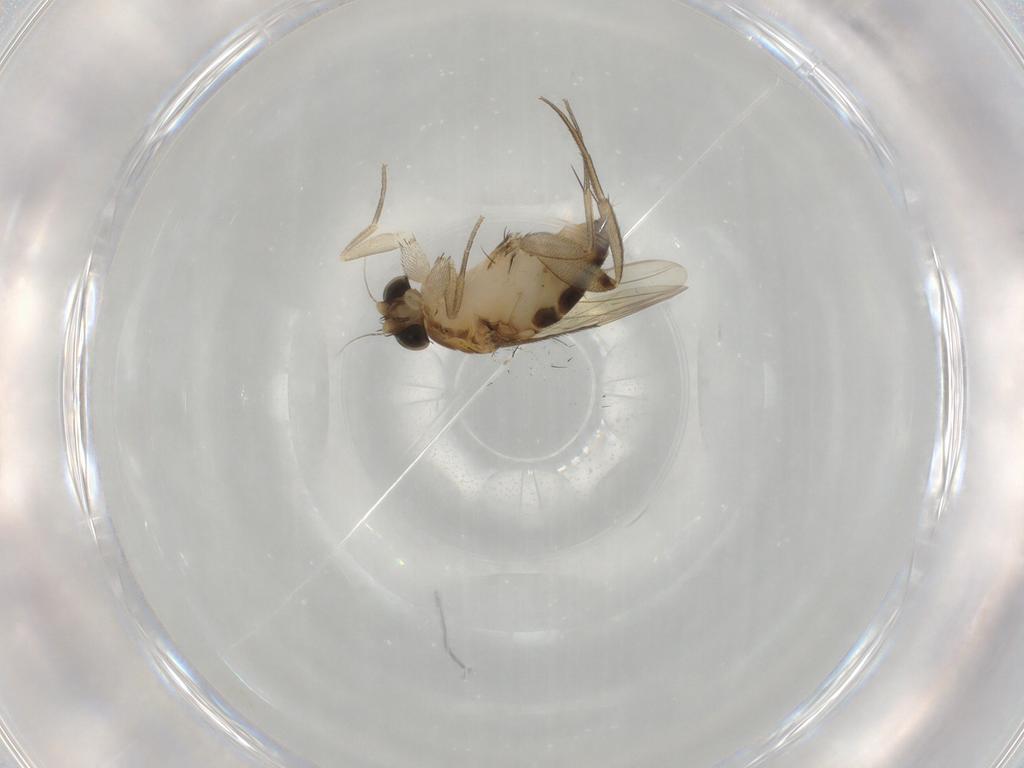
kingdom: Animalia
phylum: Arthropoda
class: Insecta
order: Diptera
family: Phoridae
